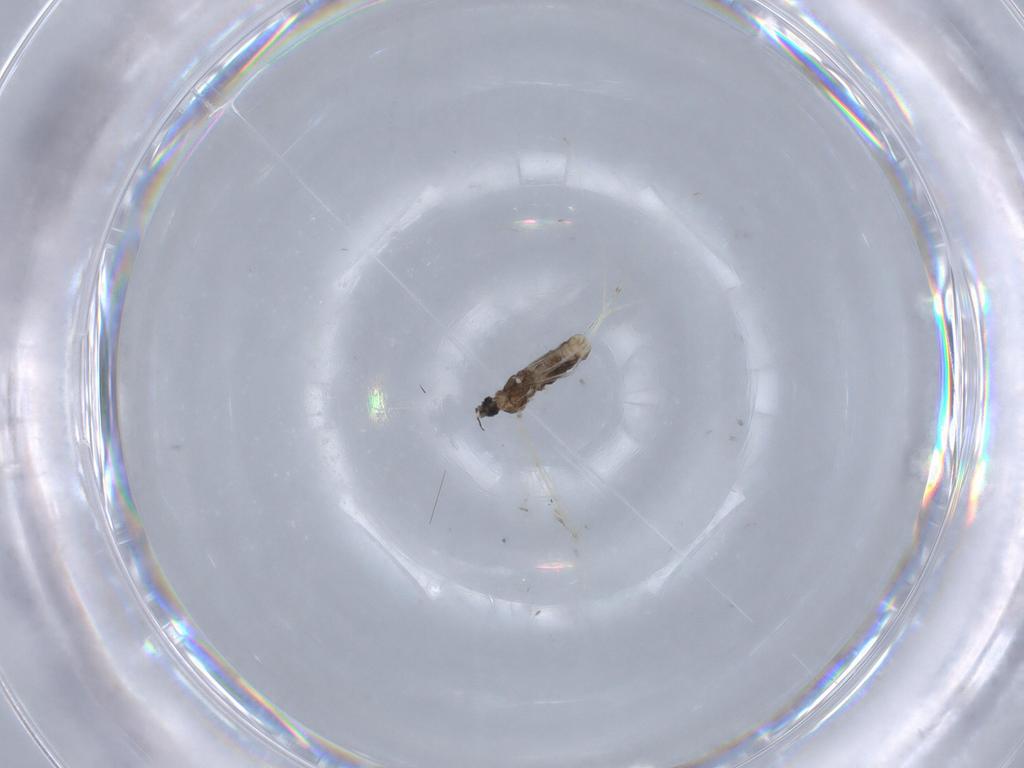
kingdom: Animalia
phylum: Arthropoda
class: Insecta
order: Diptera
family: Cecidomyiidae
